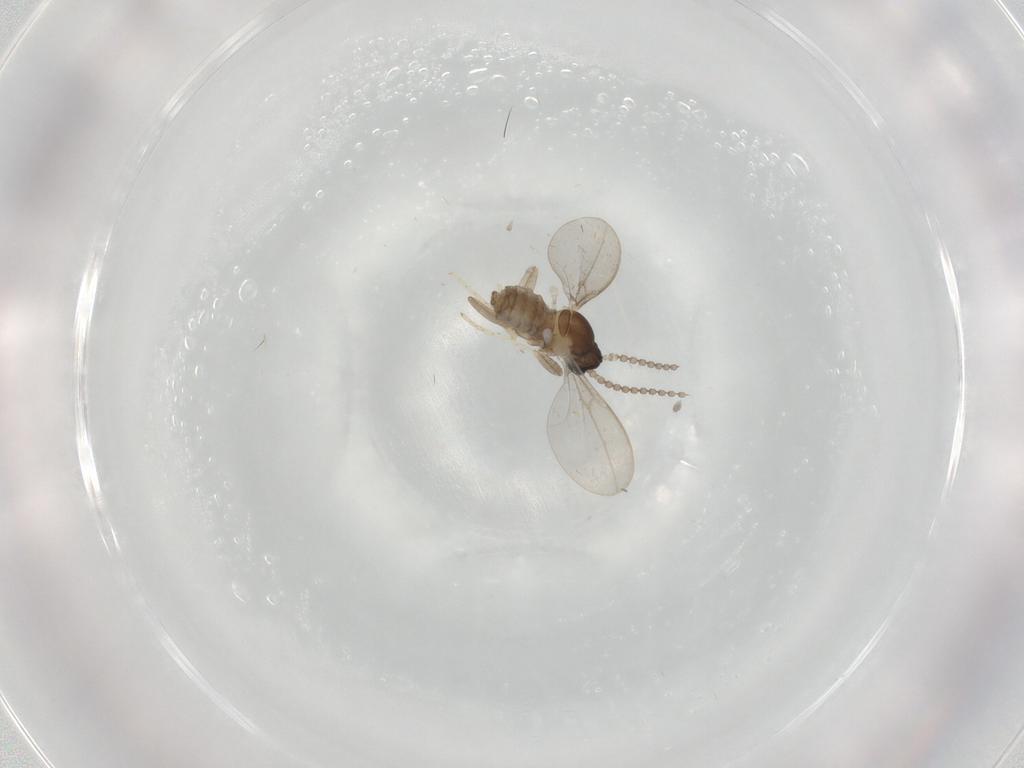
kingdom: Animalia
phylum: Arthropoda
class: Insecta
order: Diptera
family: Cecidomyiidae
